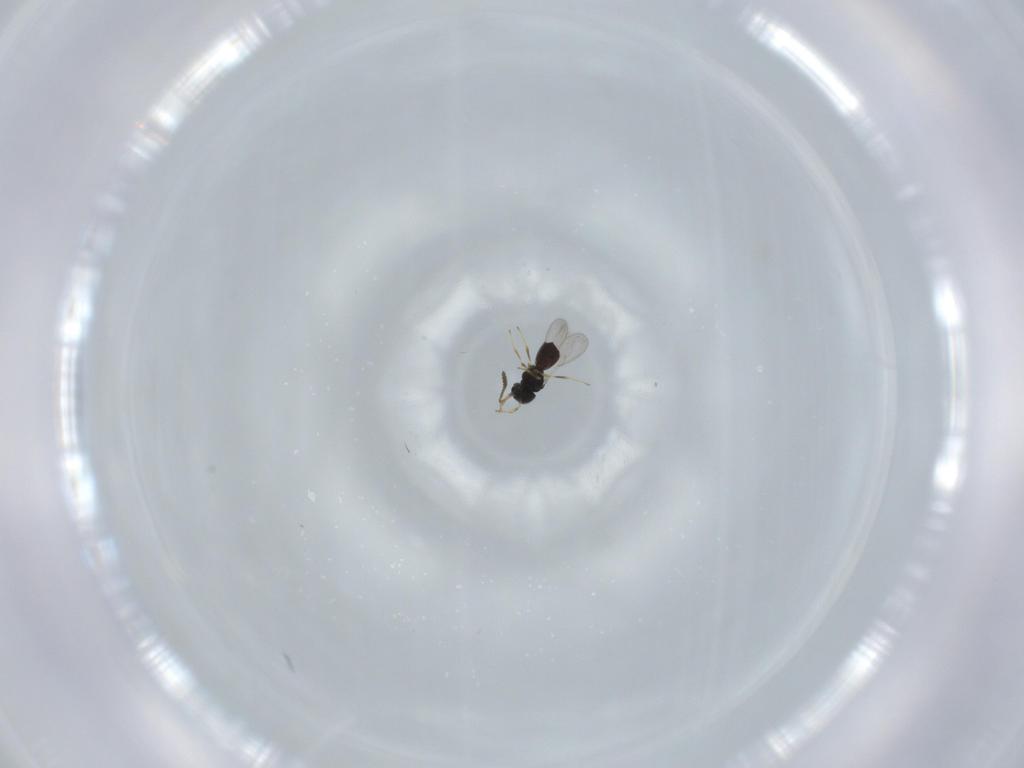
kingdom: Animalia
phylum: Arthropoda
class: Insecta
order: Hymenoptera
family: Scelionidae
